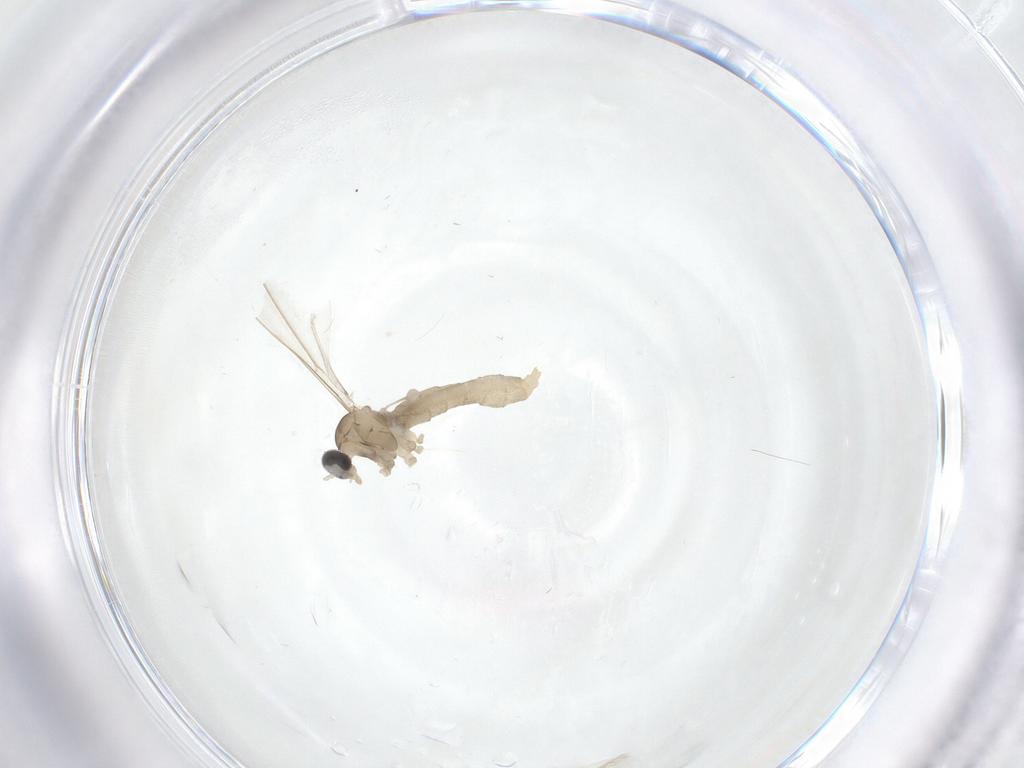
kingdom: Animalia
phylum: Arthropoda
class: Insecta
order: Diptera
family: Cecidomyiidae
